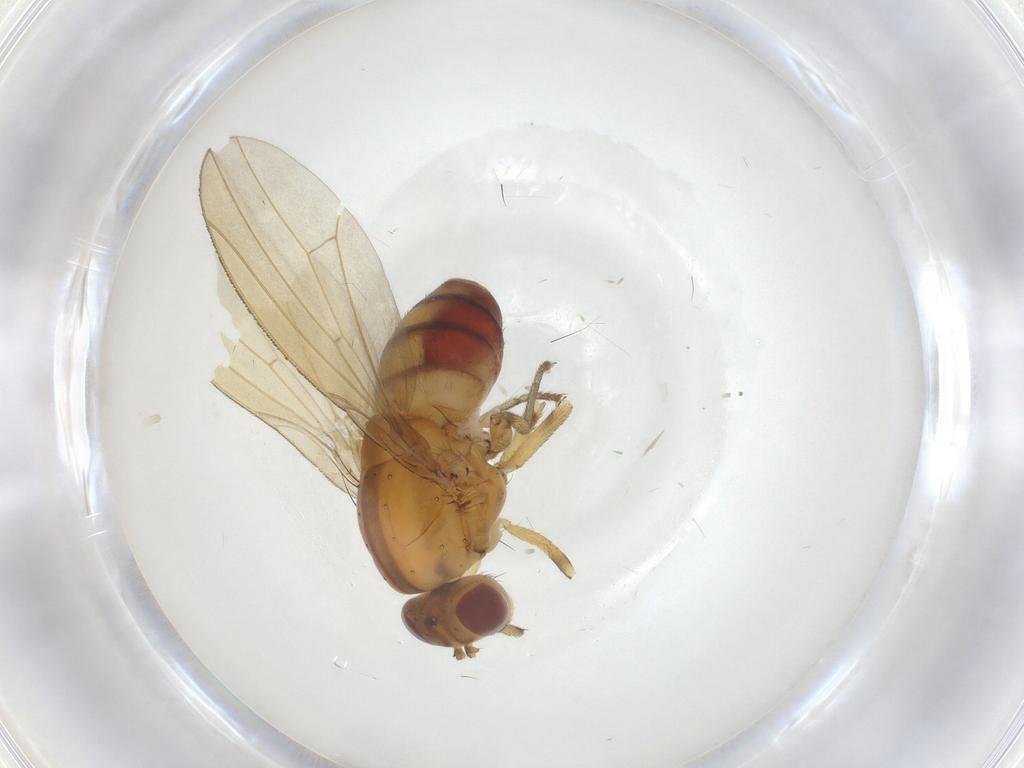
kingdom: Animalia
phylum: Arthropoda
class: Insecta
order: Diptera
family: Lauxaniidae
